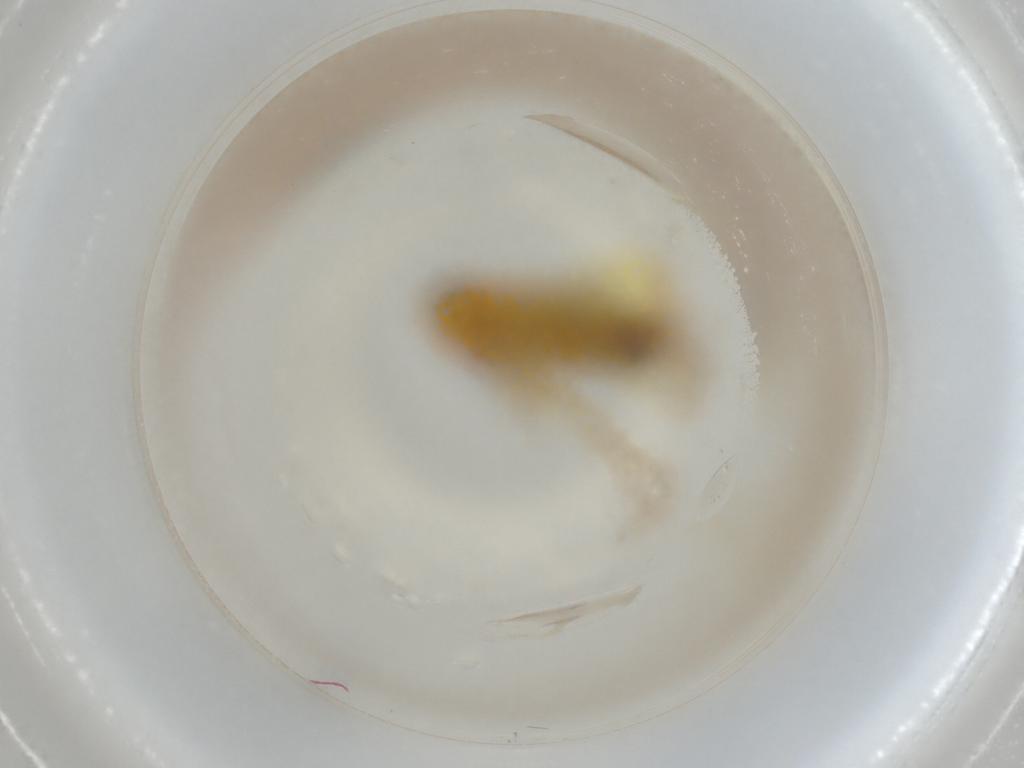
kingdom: Animalia
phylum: Arthropoda
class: Insecta
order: Hemiptera
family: Cicadellidae
